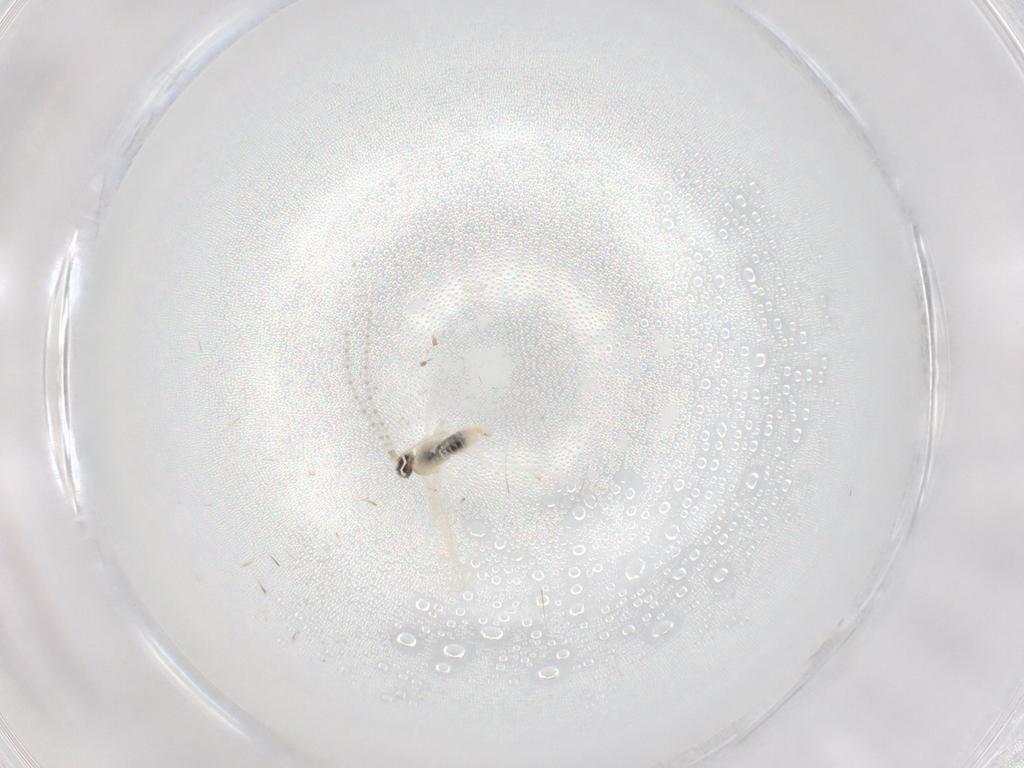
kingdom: Animalia
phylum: Arthropoda
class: Insecta
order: Diptera
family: Cecidomyiidae
